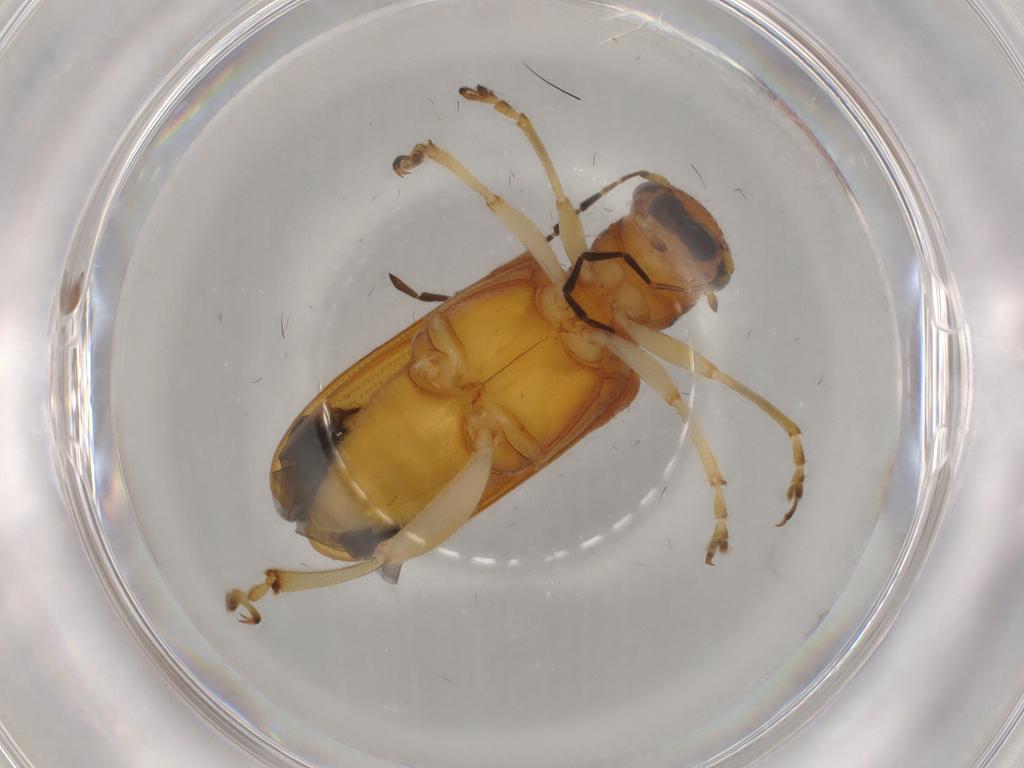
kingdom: Animalia
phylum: Arthropoda
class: Insecta
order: Coleoptera
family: Chrysomelidae
